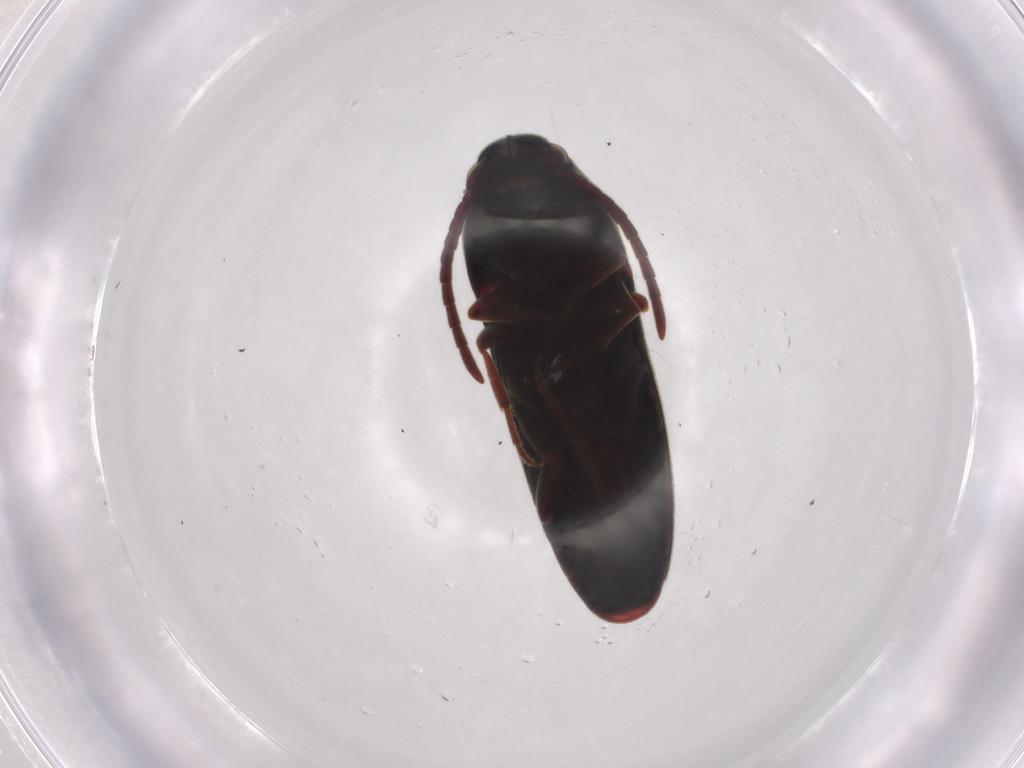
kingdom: Animalia
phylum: Arthropoda
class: Insecta
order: Coleoptera
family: Eucnemidae
